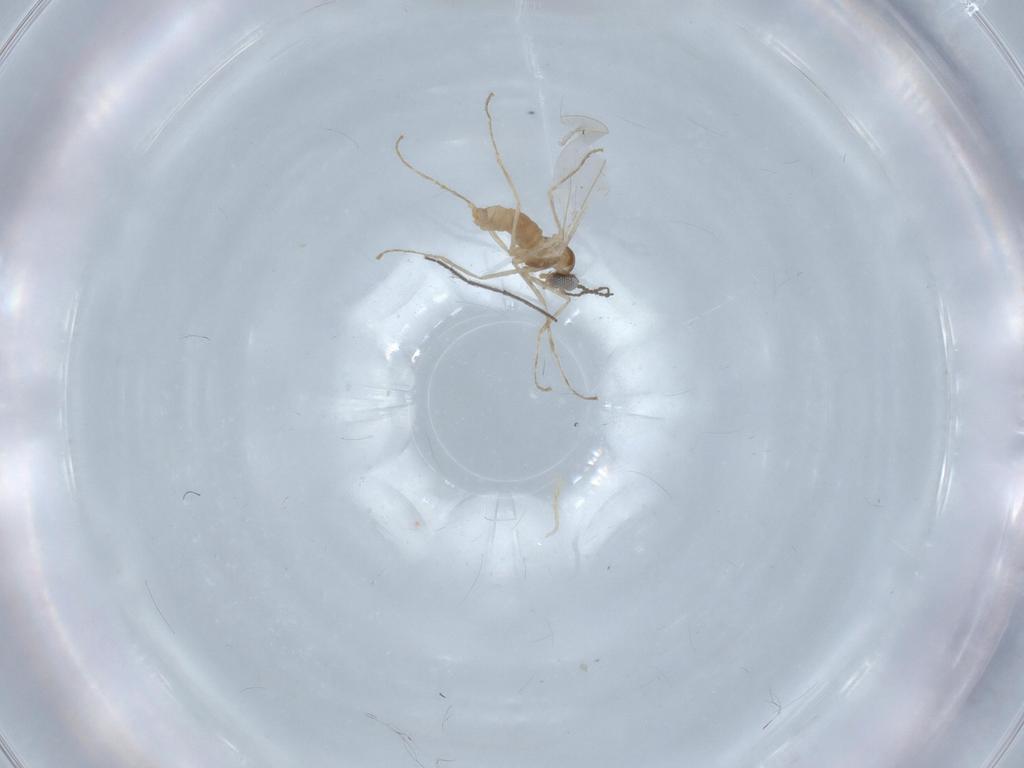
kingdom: Animalia
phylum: Arthropoda
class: Insecta
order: Diptera
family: Cecidomyiidae
